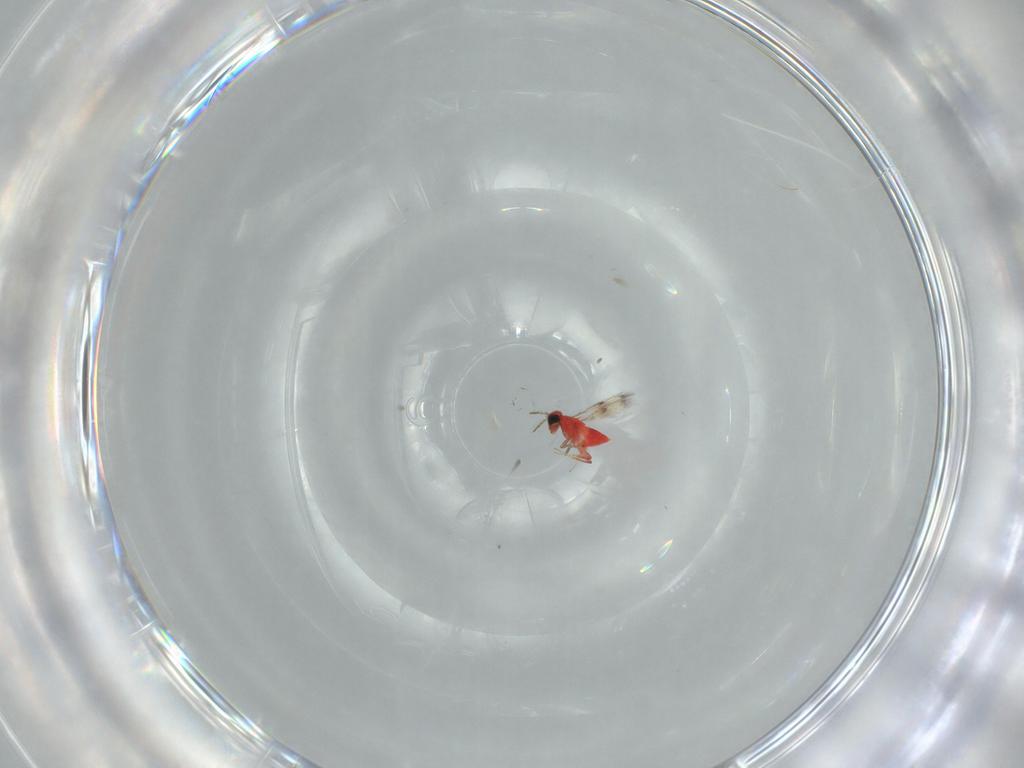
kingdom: Animalia
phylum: Arthropoda
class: Insecta
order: Hymenoptera
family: Trichogrammatidae
